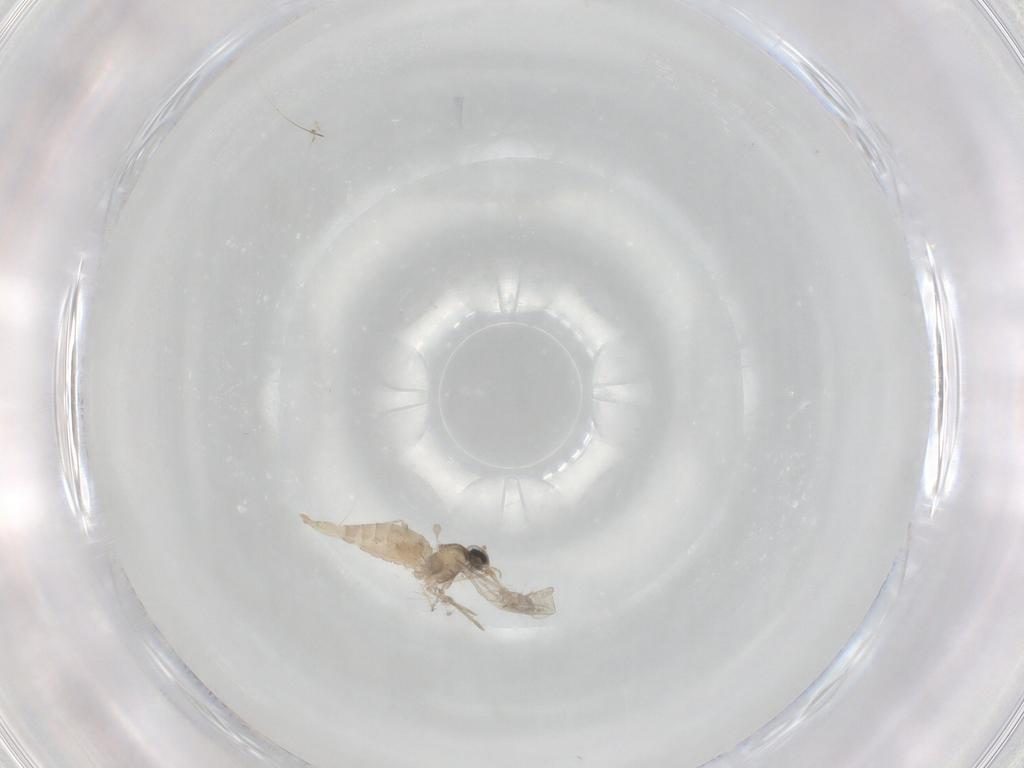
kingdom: Animalia
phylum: Arthropoda
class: Insecta
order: Diptera
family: Cecidomyiidae
